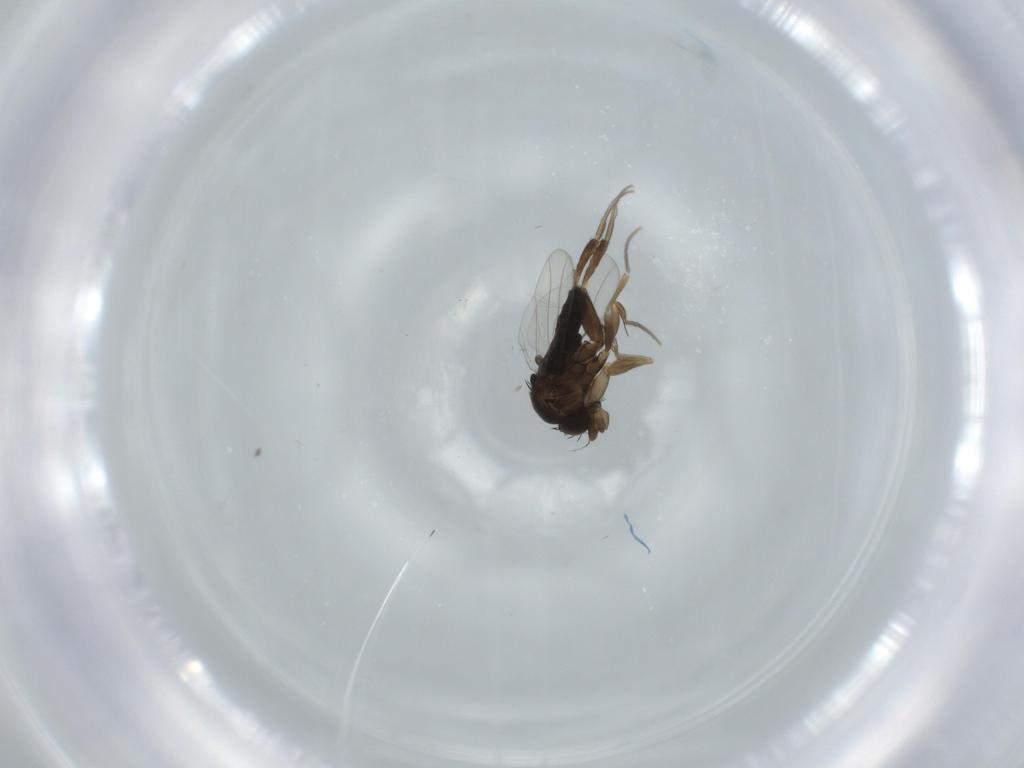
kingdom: Animalia
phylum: Arthropoda
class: Insecta
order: Diptera
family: Phoridae
